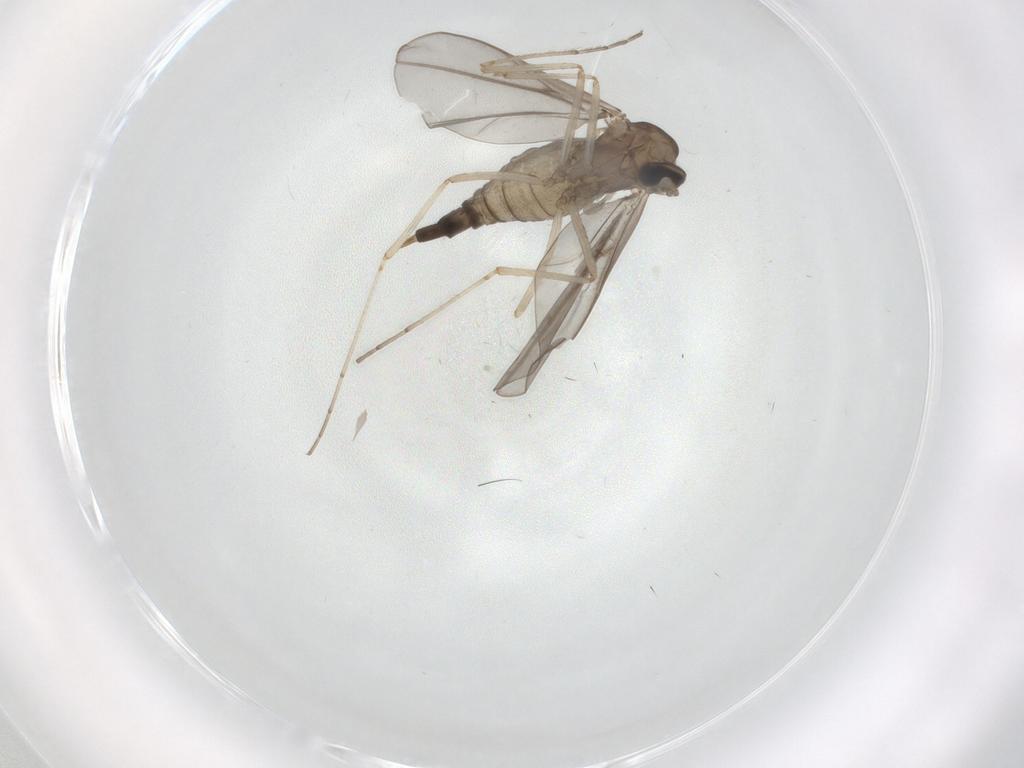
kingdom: Animalia
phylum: Arthropoda
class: Insecta
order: Diptera
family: Cecidomyiidae
